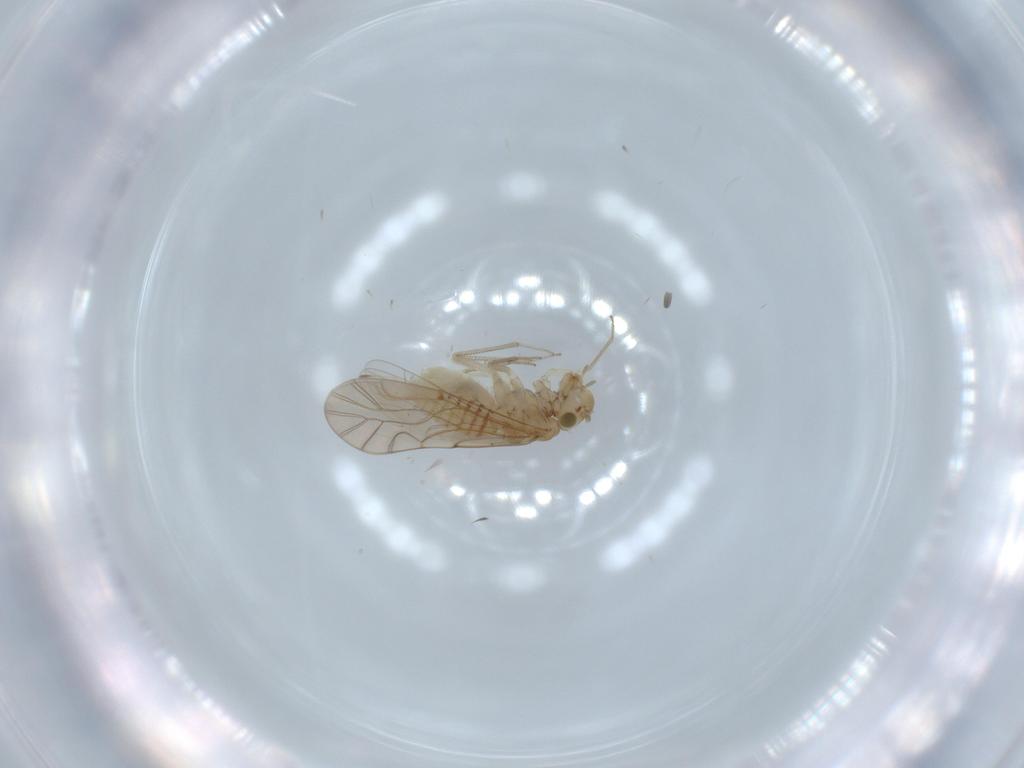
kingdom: Animalia
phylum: Arthropoda
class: Insecta
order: Psocodea
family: Lachesillidae
